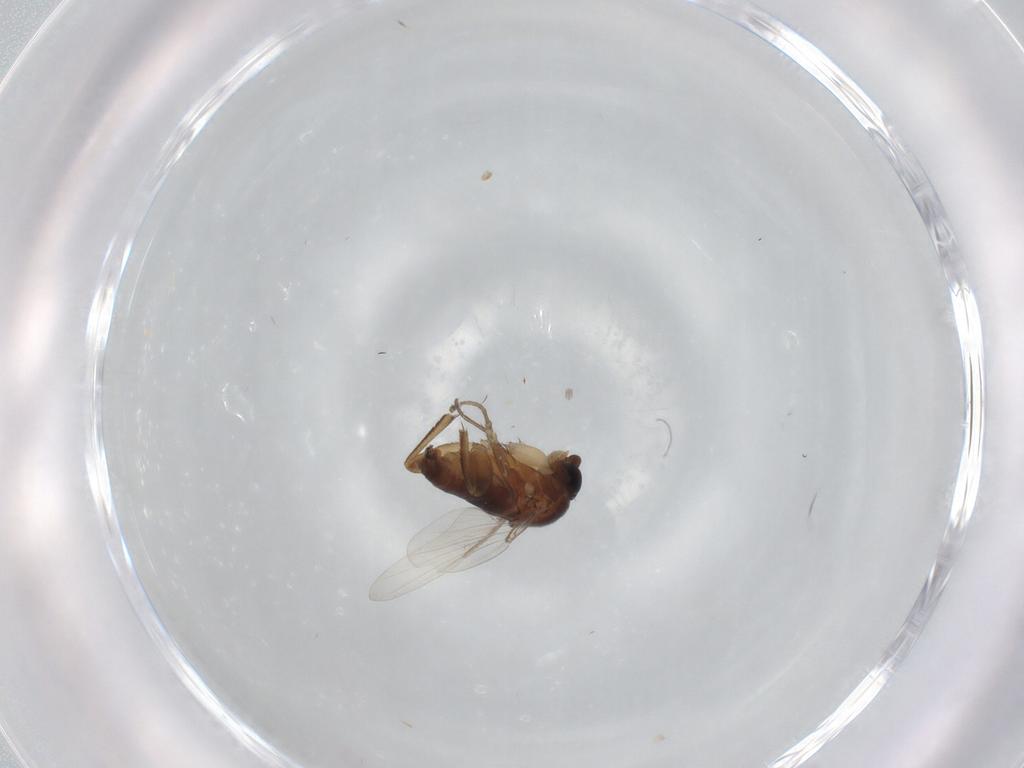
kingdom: Animalia
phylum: Arthropoda
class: Insecta
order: Diptera
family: Phoridae
